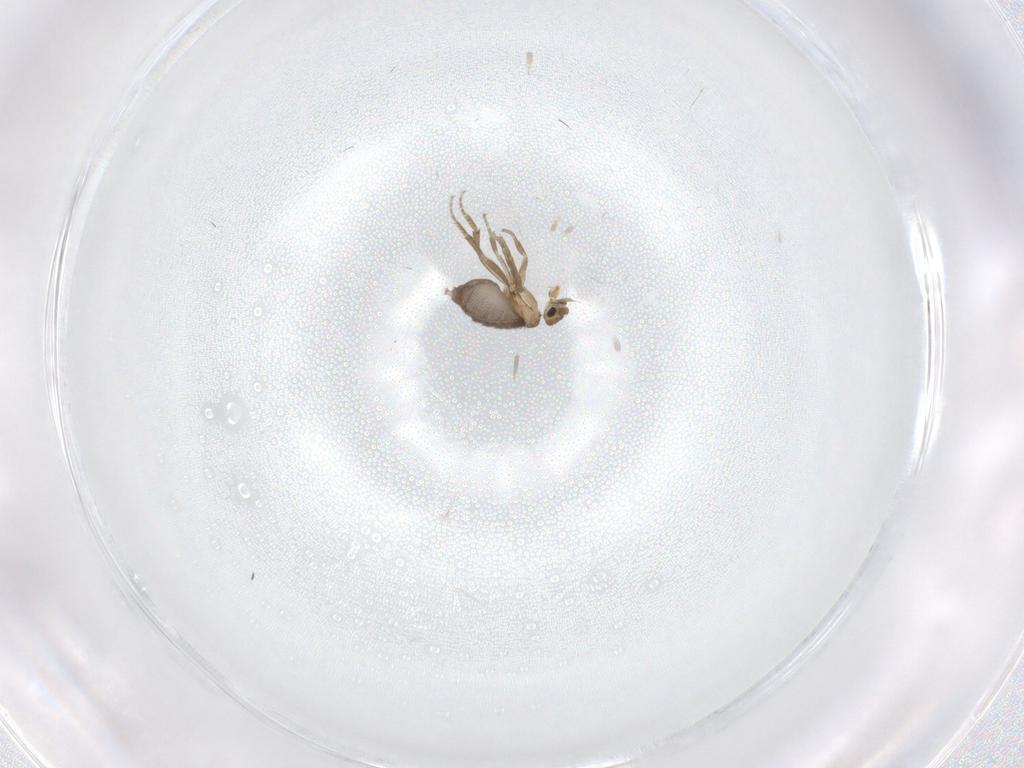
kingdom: Animalia
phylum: Arthropoda
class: Insecta
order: Diptera
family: Phoridae
